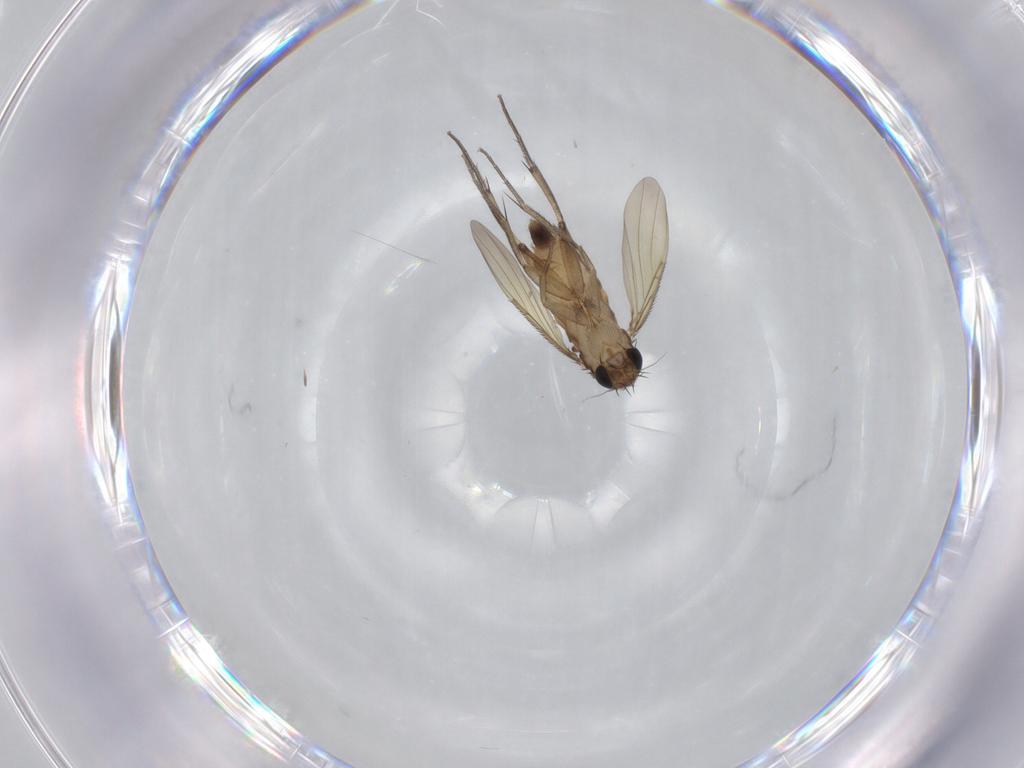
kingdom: Animalia
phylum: Arthropoda
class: Insecta
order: Diptera
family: Phoridae
